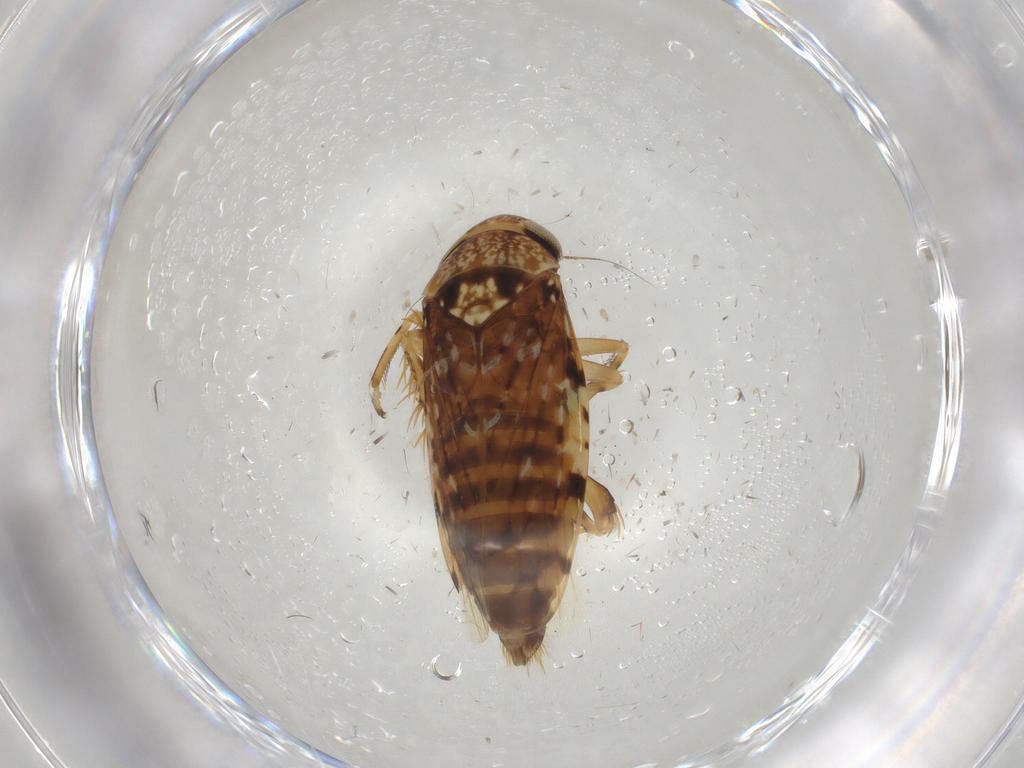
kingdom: Animalia
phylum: Arthropoda
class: Insecta
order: Hemiptera
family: Cicadellidae
